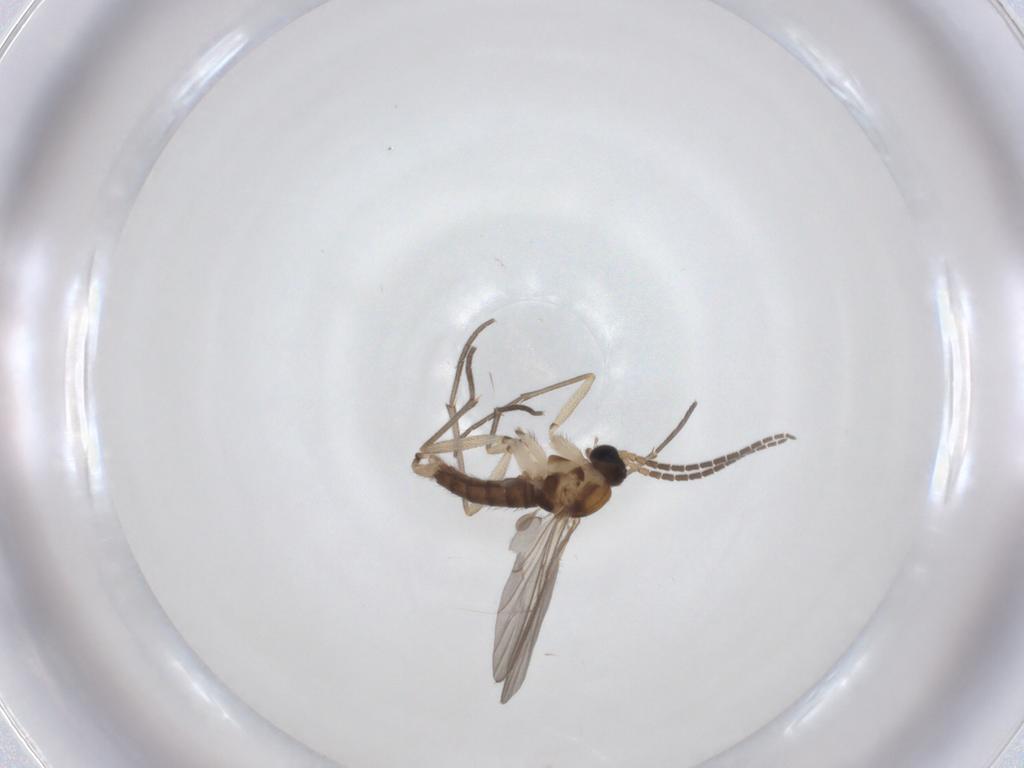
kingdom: Animalia
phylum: Arthropoda
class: Insecta
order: Diptera
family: Sciaridae
